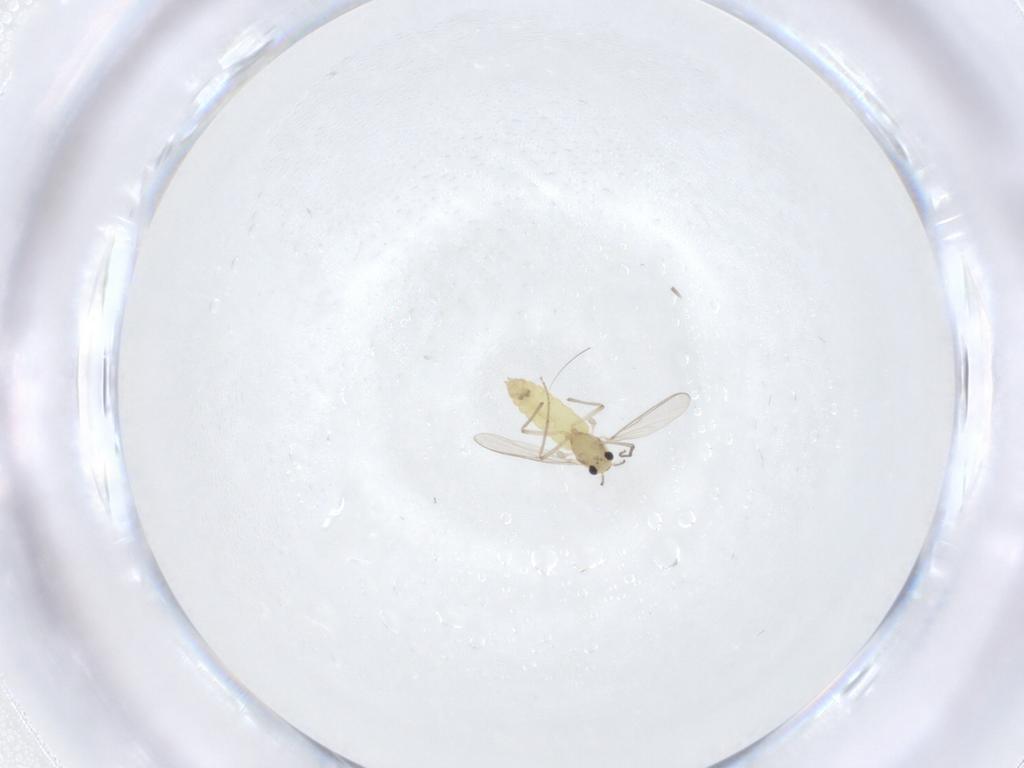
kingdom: Animalia
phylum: Arthropoda
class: Insecta
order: Diptera
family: Chironomidae
